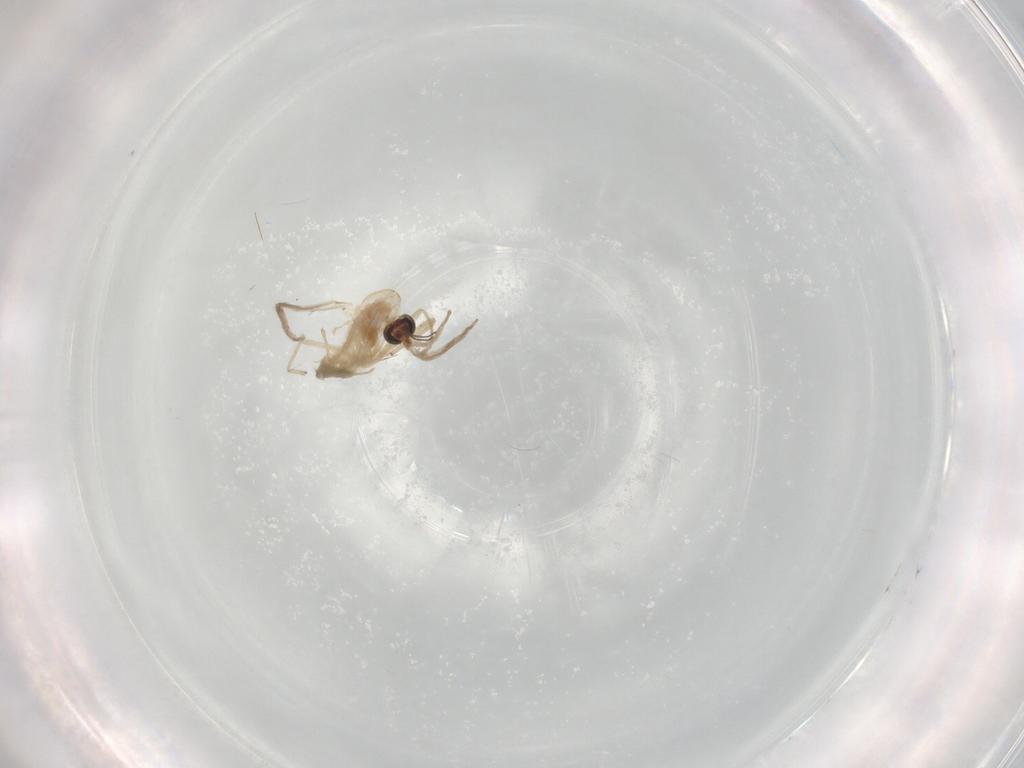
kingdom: Animalia
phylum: Arthropoda
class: Insecta
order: Diptera
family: Chironomidae
